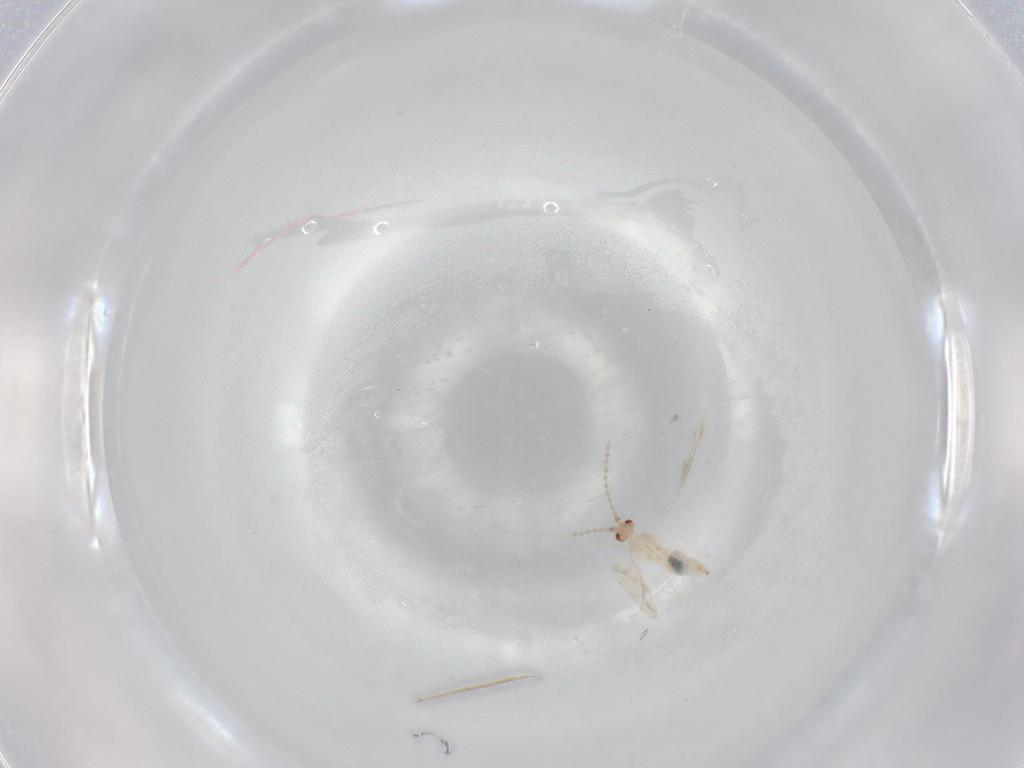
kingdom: Animalia
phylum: Arthropoda
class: Insecta
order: Diptera
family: Cecidomyiidae
